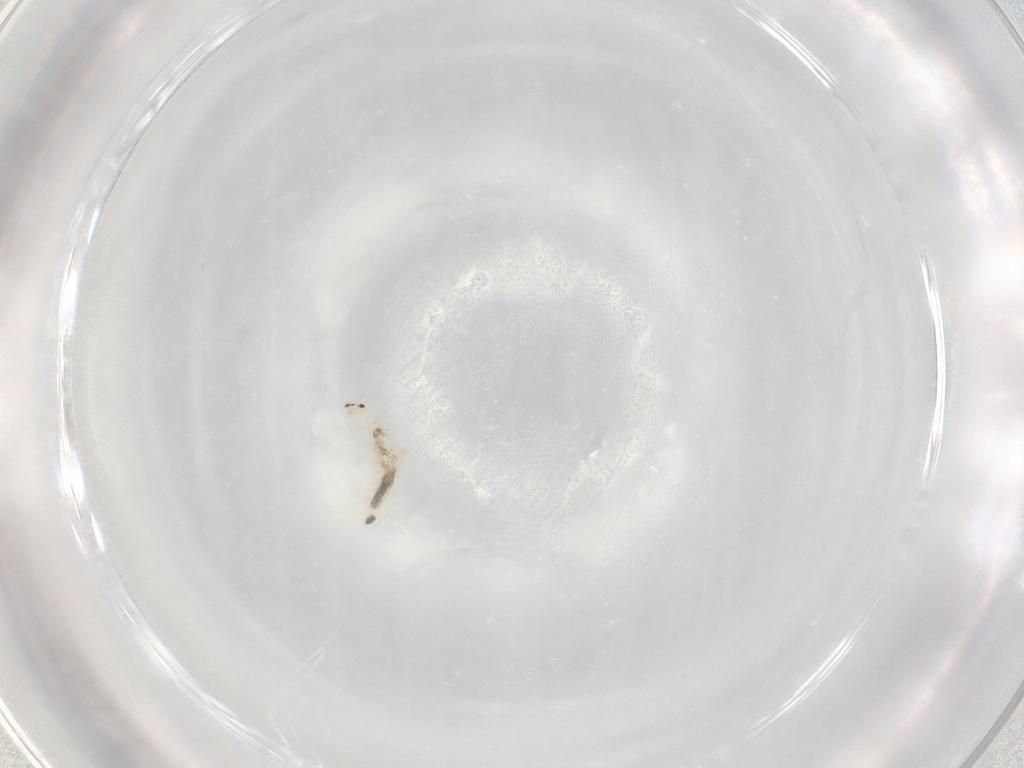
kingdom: Animalia
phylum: Arthropoda
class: Collembola
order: Entomobryomorpha
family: Entomobryidae
